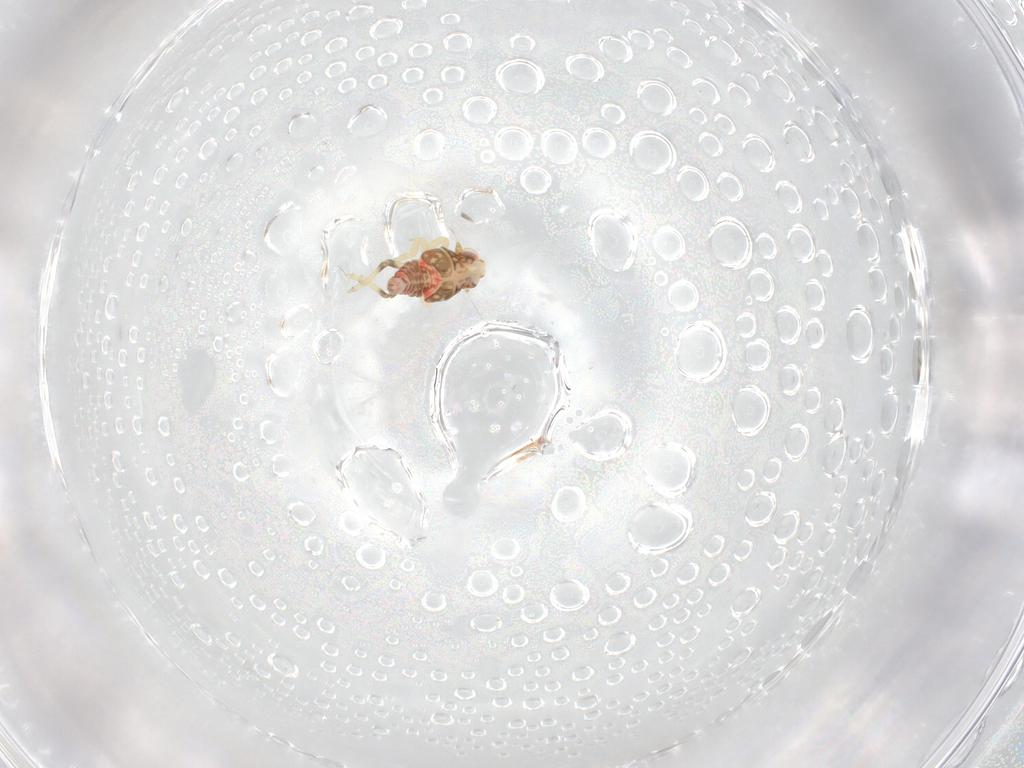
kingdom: Animalia
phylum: Arthropoda
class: Insecta
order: Hemiptera
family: Nogodinidae
